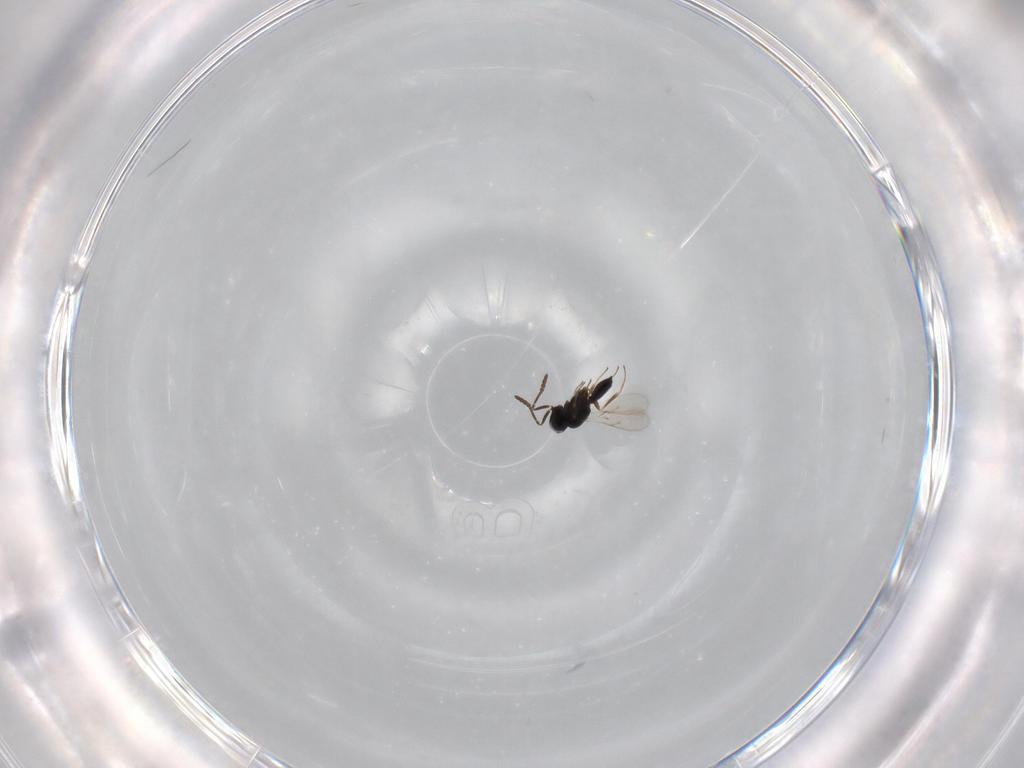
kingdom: Animalia
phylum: Arthropoda
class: Insecta
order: Hymenoptera
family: Scelionidae
